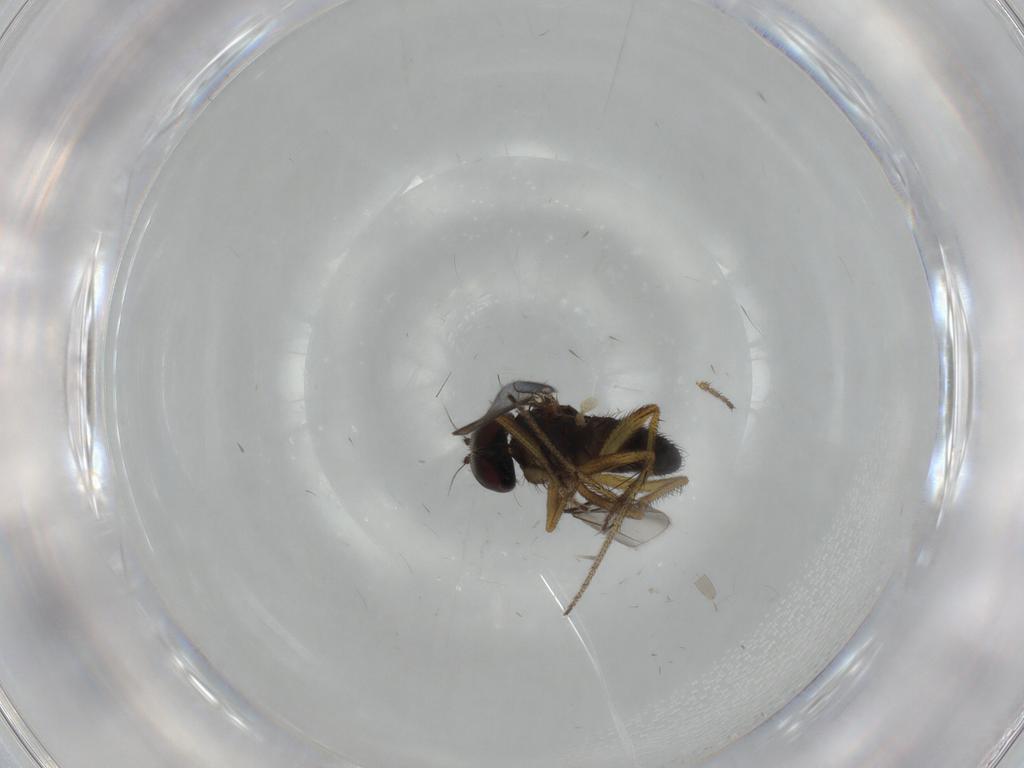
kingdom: Animalia
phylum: Arthropoda
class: Insecta
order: Diptera
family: Dolichopodidae
